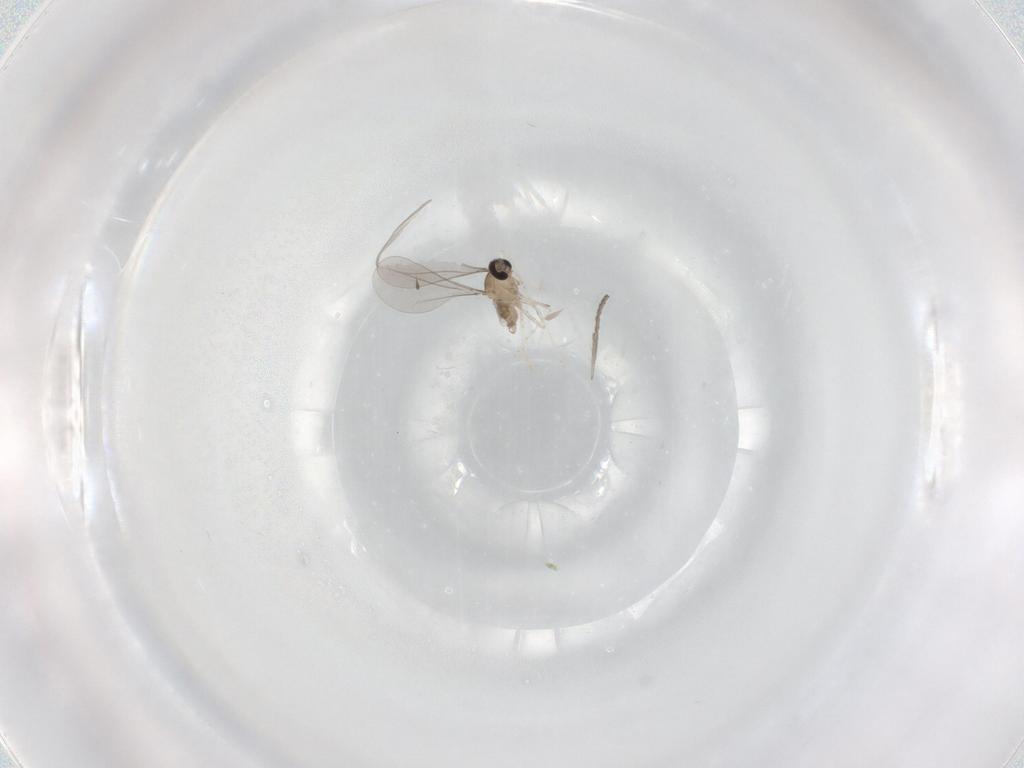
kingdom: Animalia
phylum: Arthropoda
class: Insecta
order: Diptera
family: Cecidomyiidae
